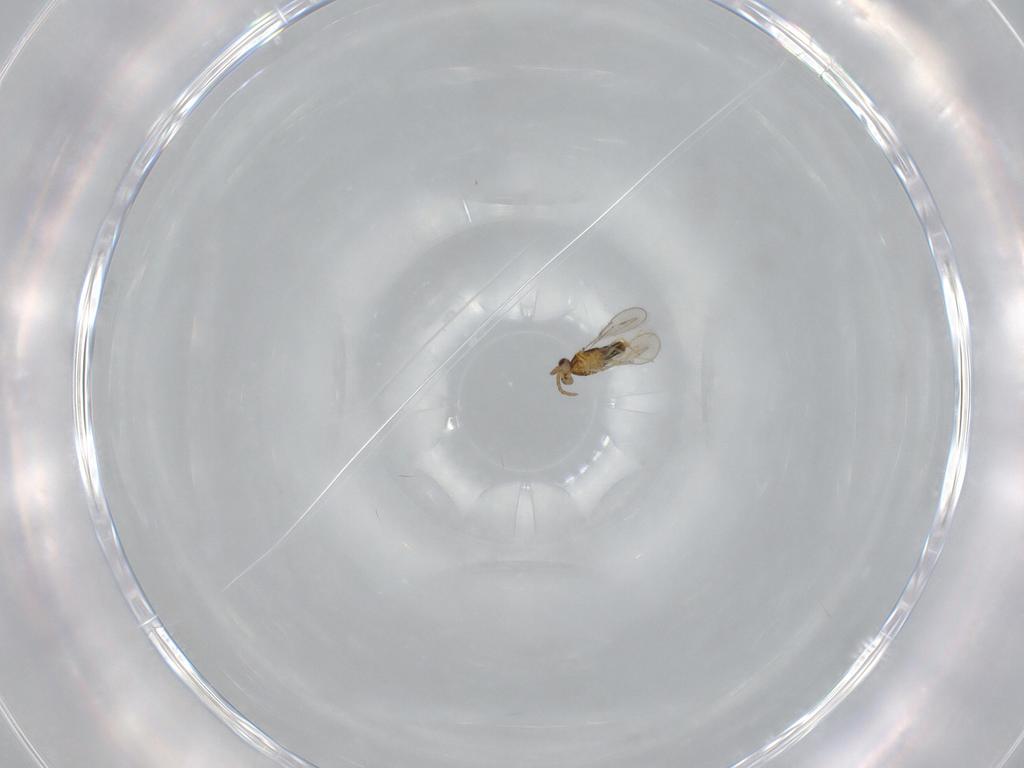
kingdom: Animalia
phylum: Arthropoda
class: Insecta
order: Hymenoptera
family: Aphelinidae
